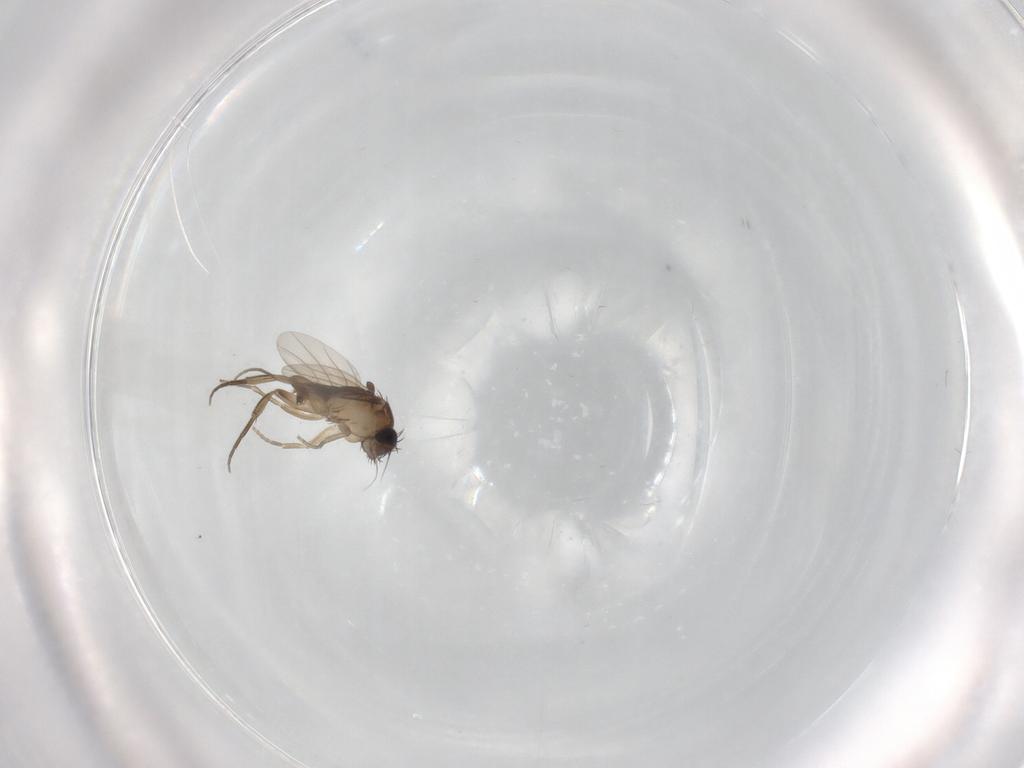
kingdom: Animalia
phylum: Arthropoda
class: Insecta
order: Diptera
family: Phoridae
